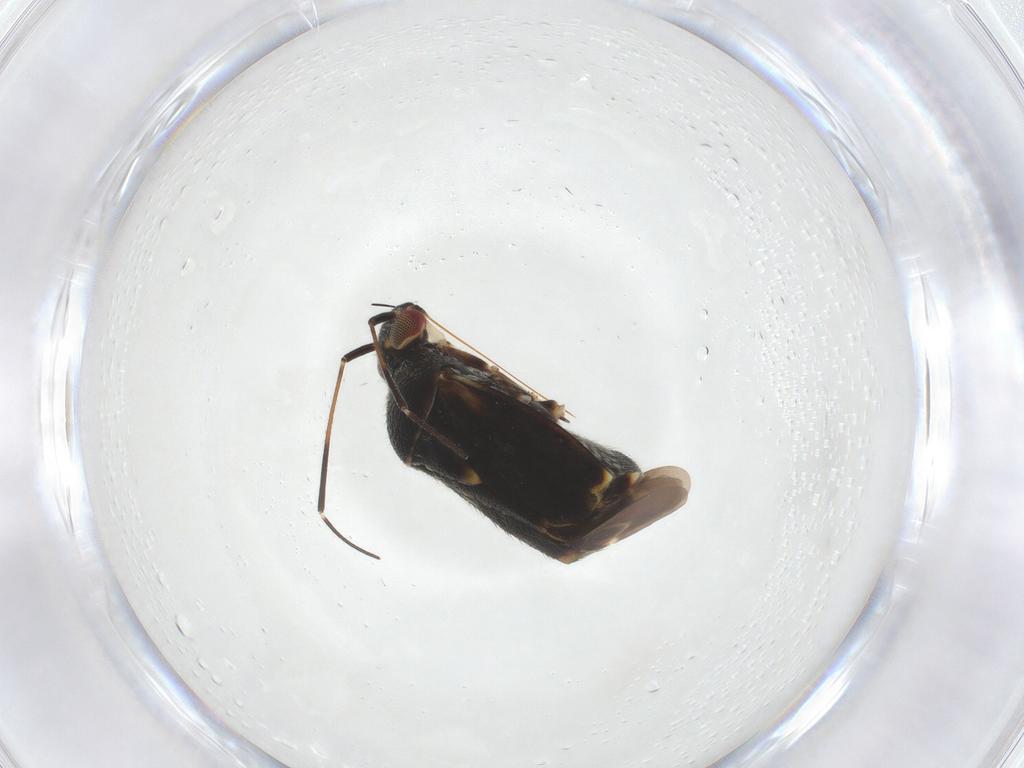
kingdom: Animalia
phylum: Arthropoda
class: Insecta
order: Hemiptera
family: Miridae
